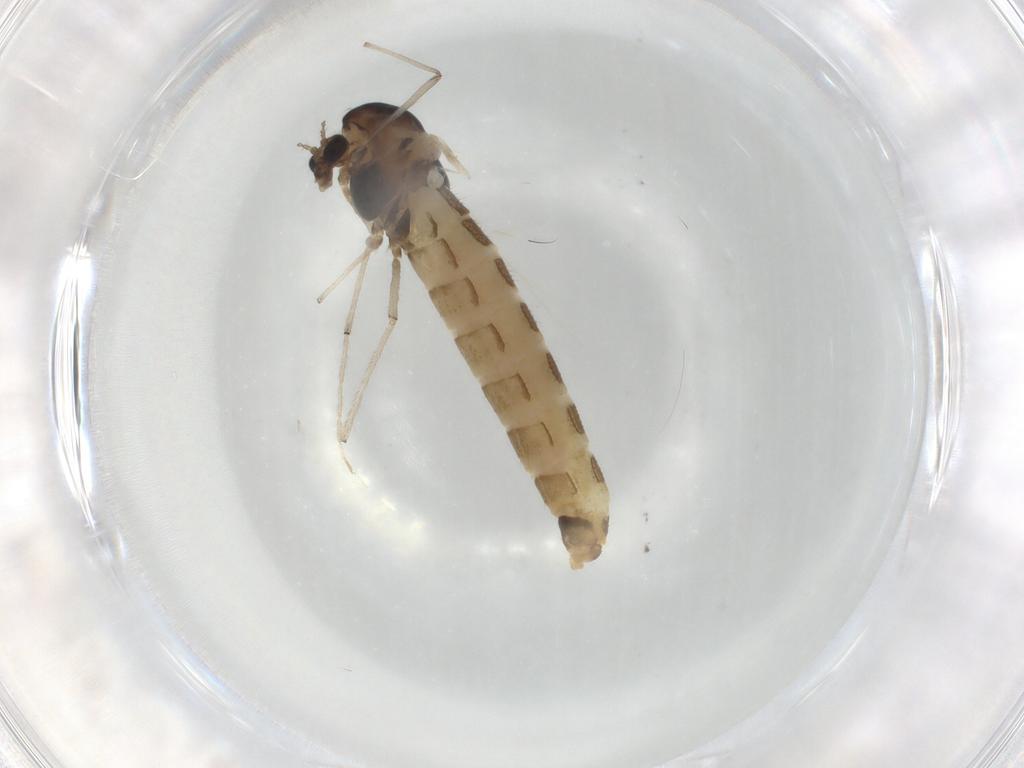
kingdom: Animalia
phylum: Arthropoda
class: Insecta
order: Diptera
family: Chironomidae
